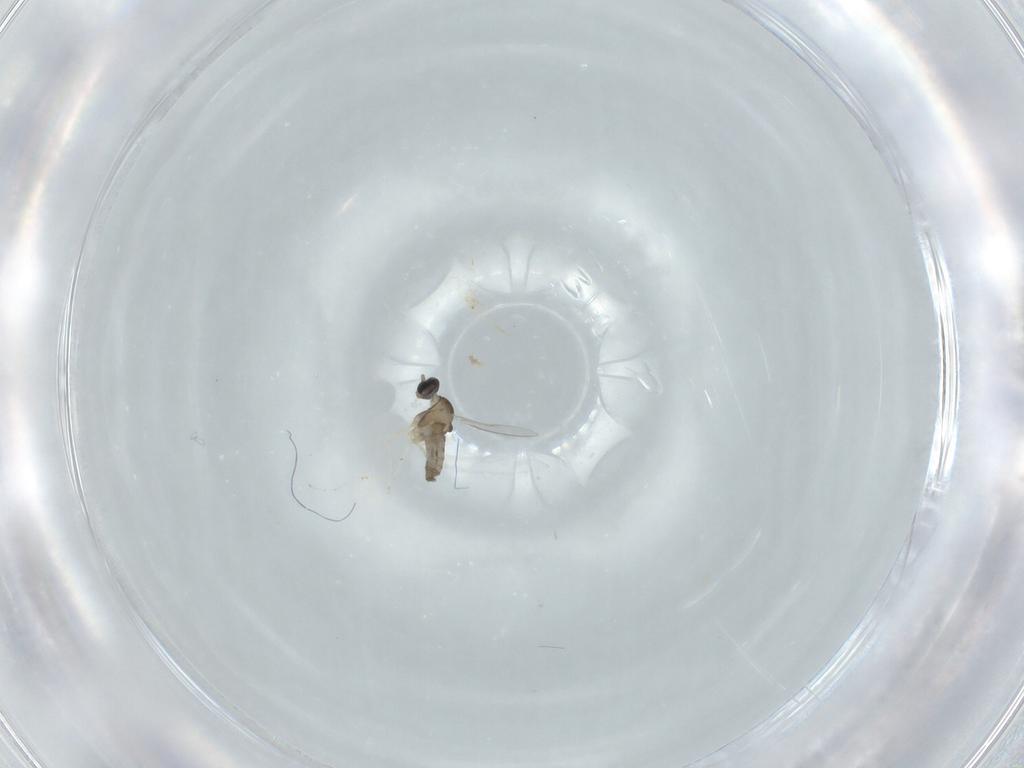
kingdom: Animalia
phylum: Arthropoda
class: Insecta
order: Diptera
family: Cecidomyiidae
